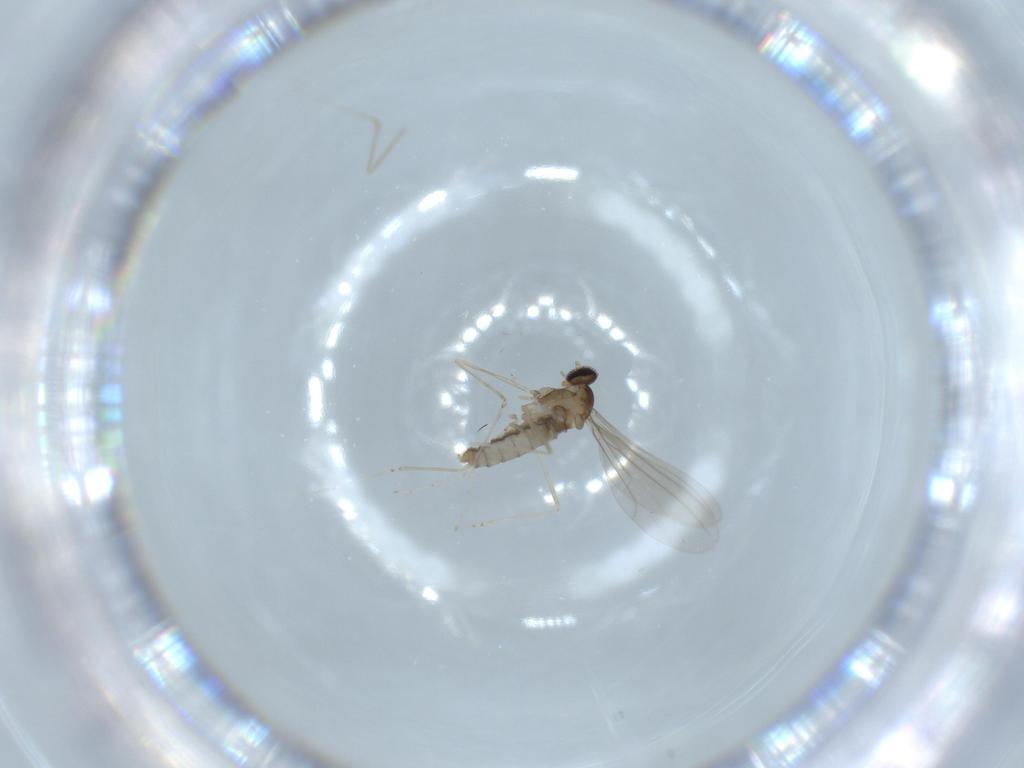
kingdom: Animalia
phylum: Arthropoda
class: Insecta
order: Diptera
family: Cecidomyiidae
